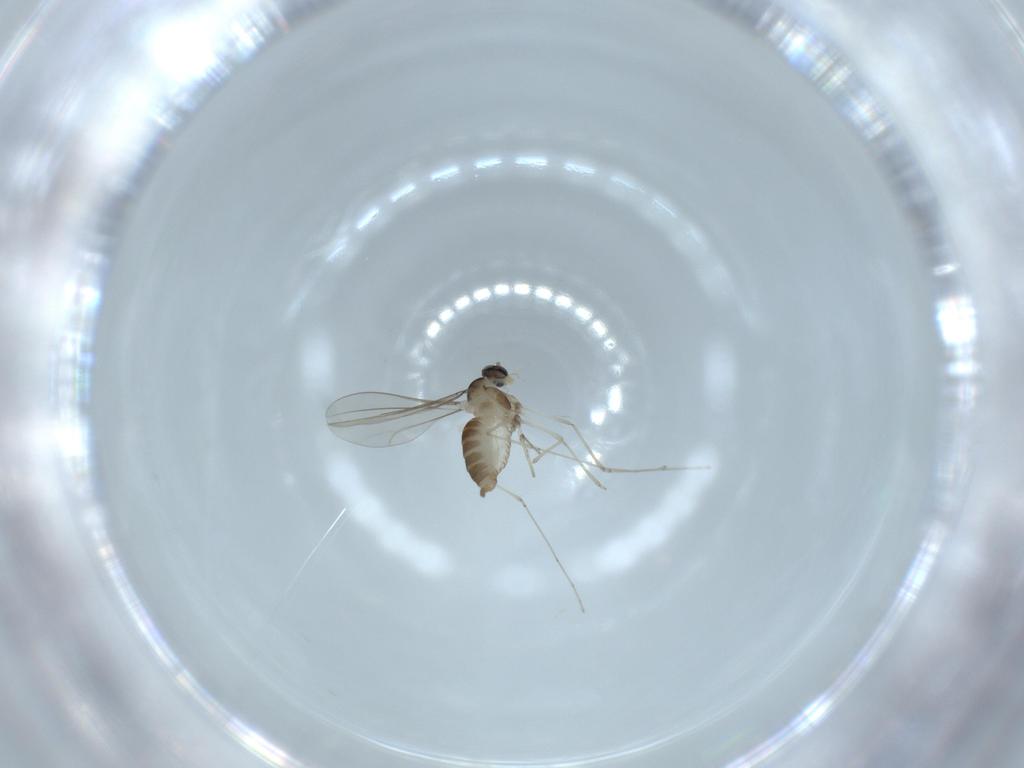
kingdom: Animalia
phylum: Arthropoda
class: Insecta
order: Diptera
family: Cecidomyiidae
